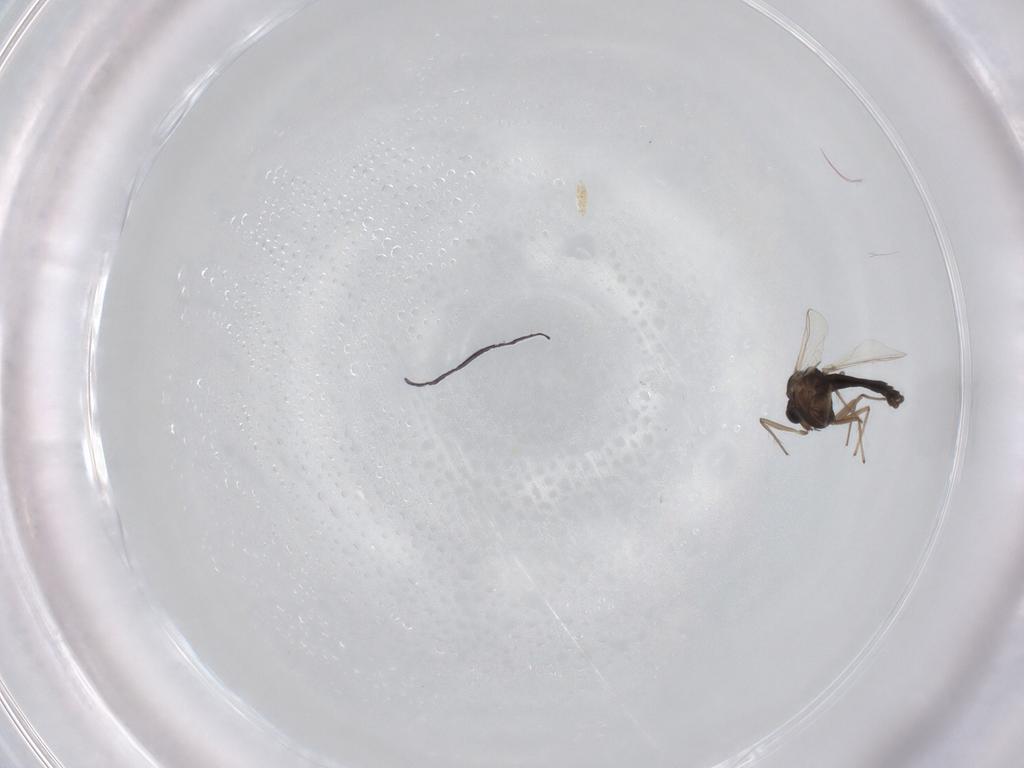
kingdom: Animalia
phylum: Arthropoda
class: Insecta
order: Diptera
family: Chironomidae
